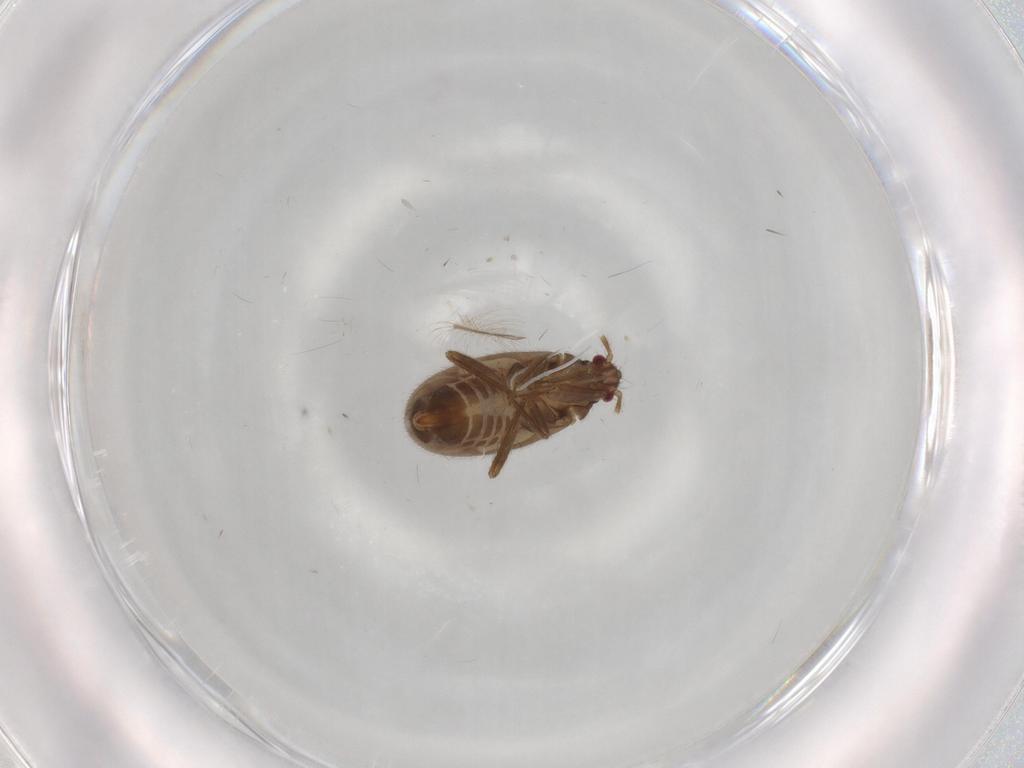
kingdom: Animalia
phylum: Arthropoda
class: Insecta
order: Hemiptera
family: Ceratocombidae
